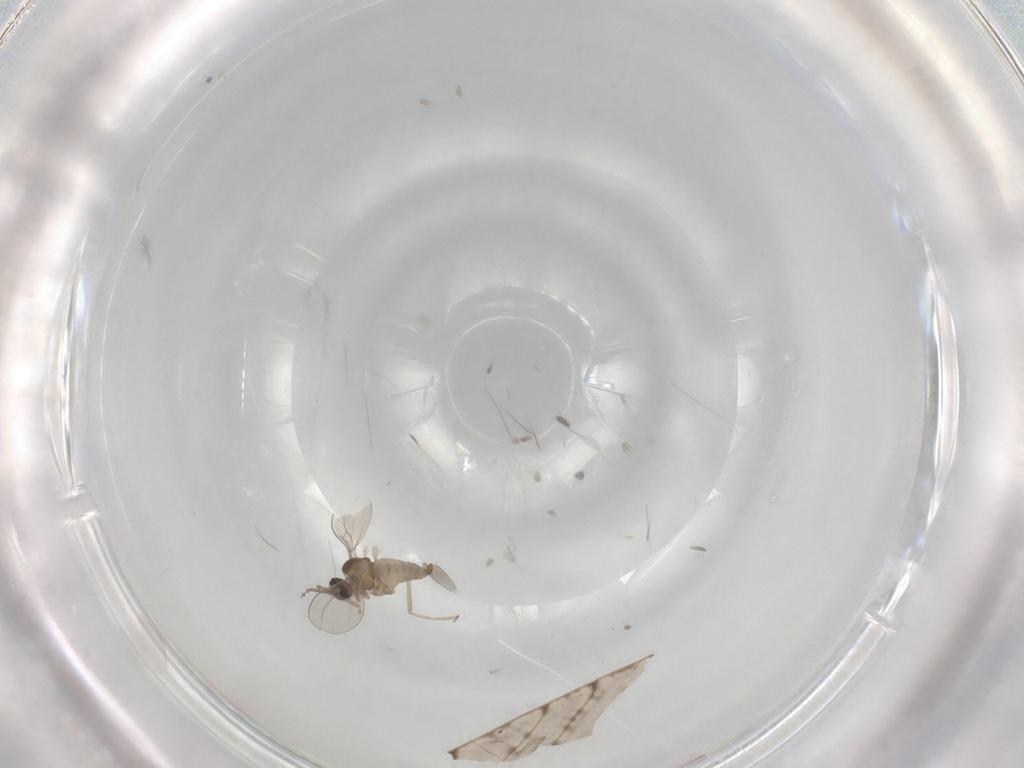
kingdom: Animalia
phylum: Arthropoda
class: Insecta
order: Diptera
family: Cecidomyiidae
